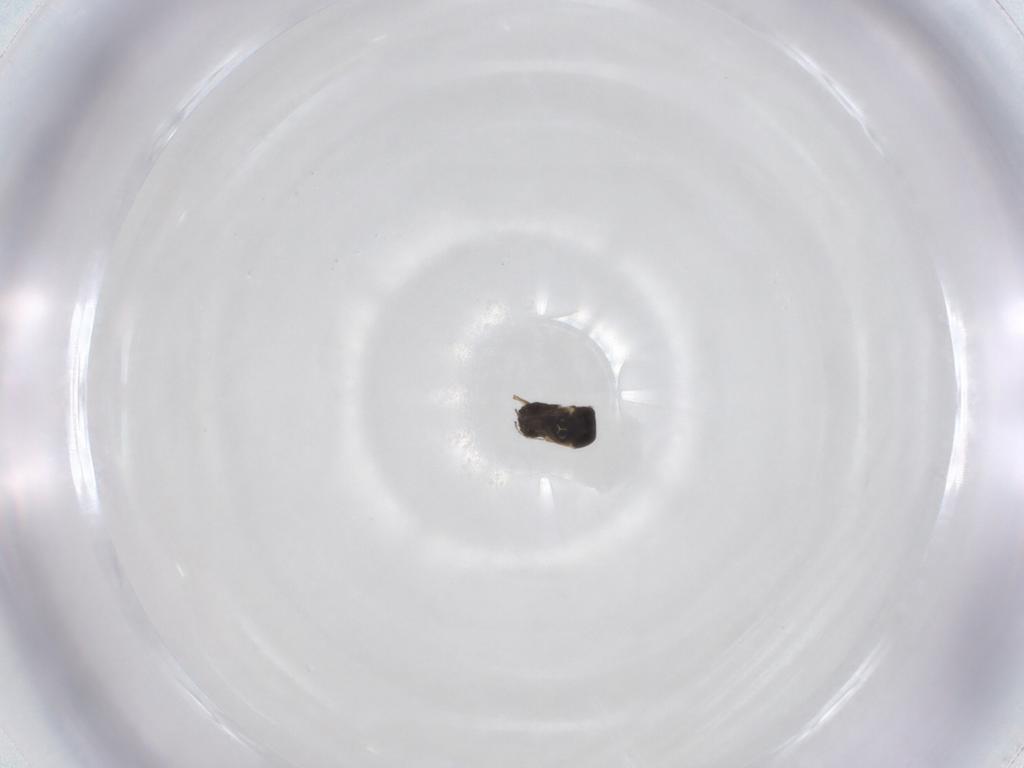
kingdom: Animalia
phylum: Arthropoda
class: Insecta
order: Diptera
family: Ceratopogonidae
